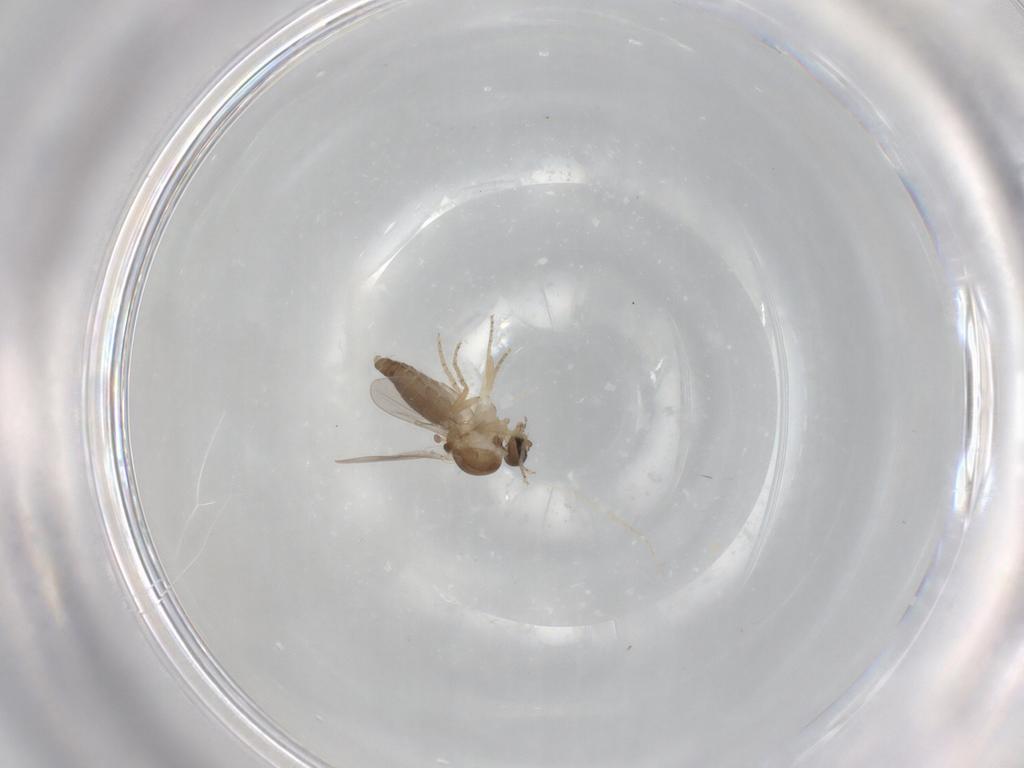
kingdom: Animalia
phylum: Arthropoda
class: Insecta
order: Diptera
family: Ceratopogonidae
